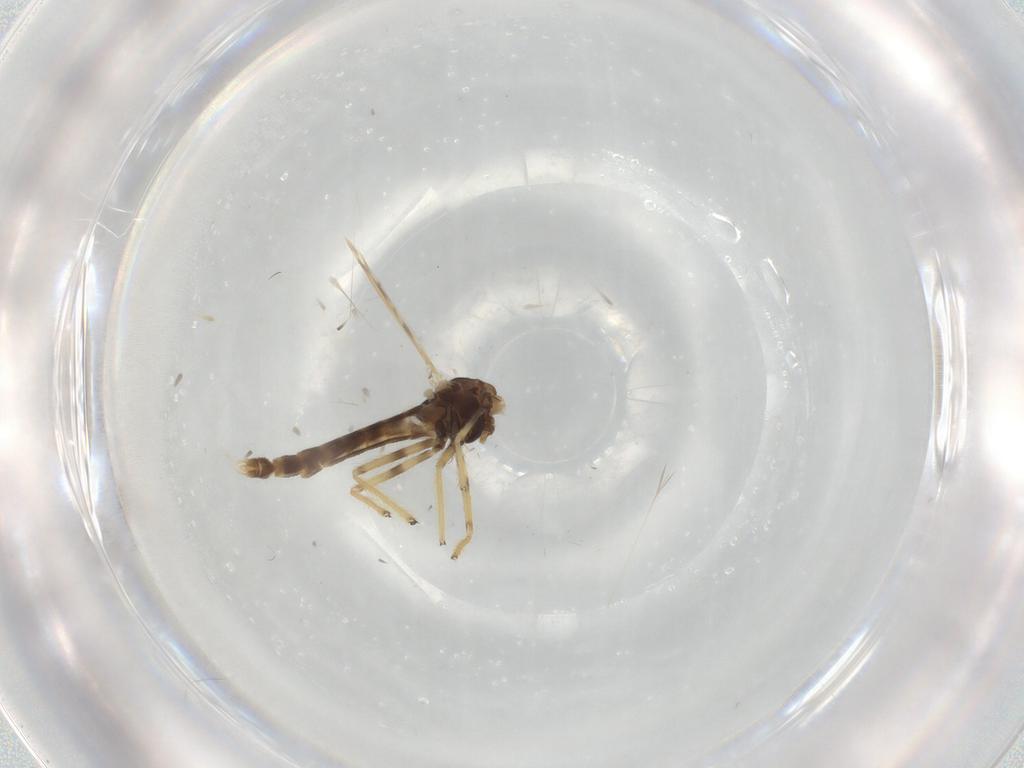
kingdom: Animalia
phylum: Arthropoda
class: Insecta
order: Diptera
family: Chironomidae
